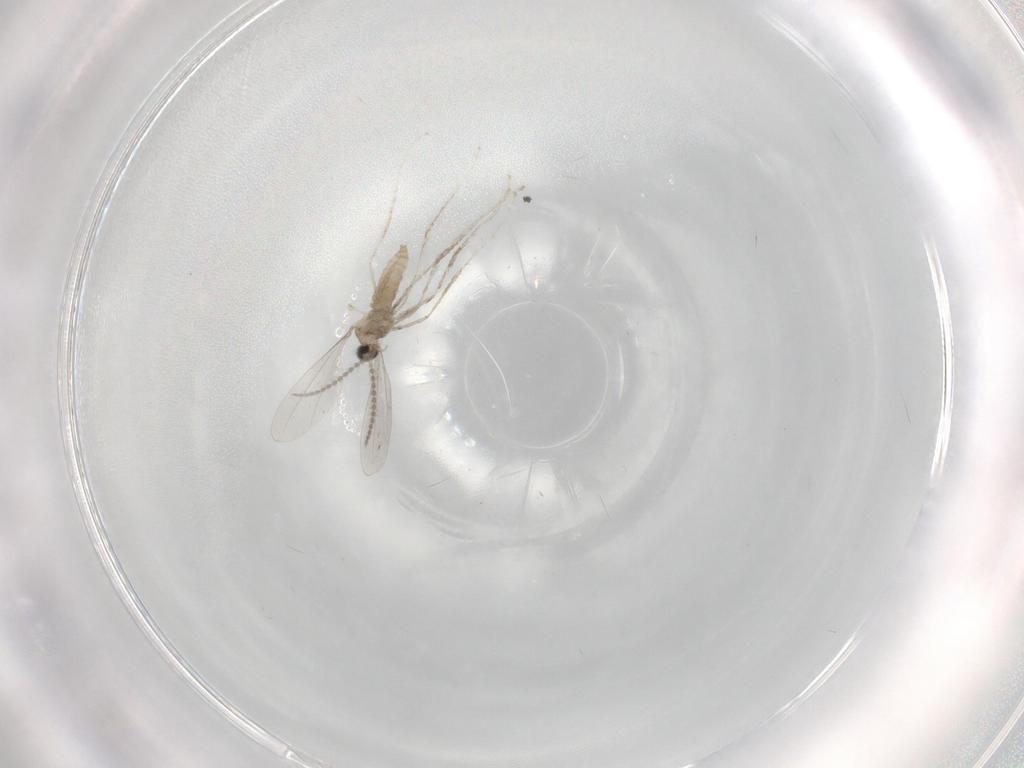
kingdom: Animalia
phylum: Arthropoda
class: Insecta
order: Diptera
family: Cecidomyiidae
